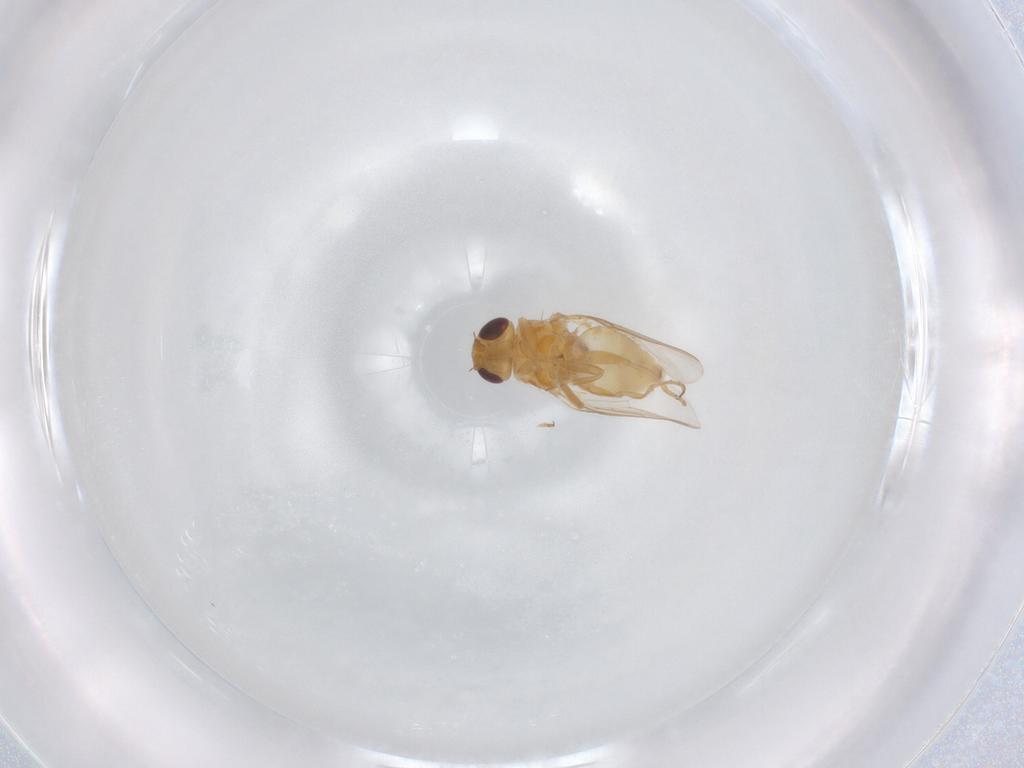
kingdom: Animalia
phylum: Arthropoda
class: Insecta
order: Diptera
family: Chloropidae
